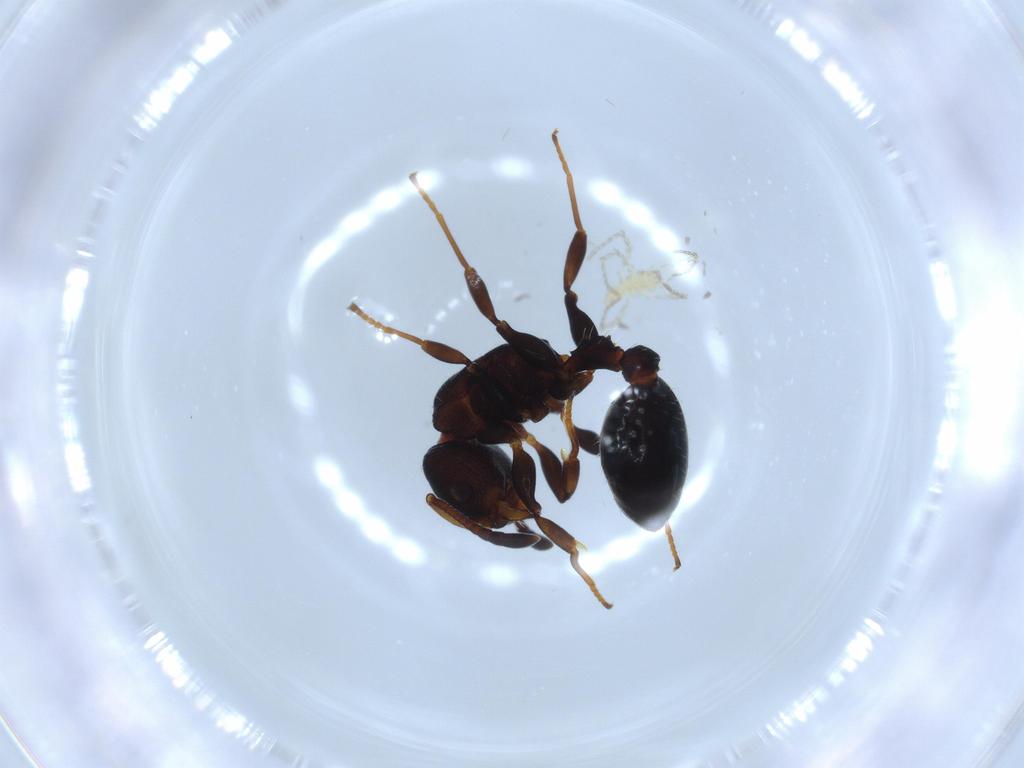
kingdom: Animalia
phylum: Arthropoda
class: Arachnida
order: Trombidiformes
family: Erythraeidae
